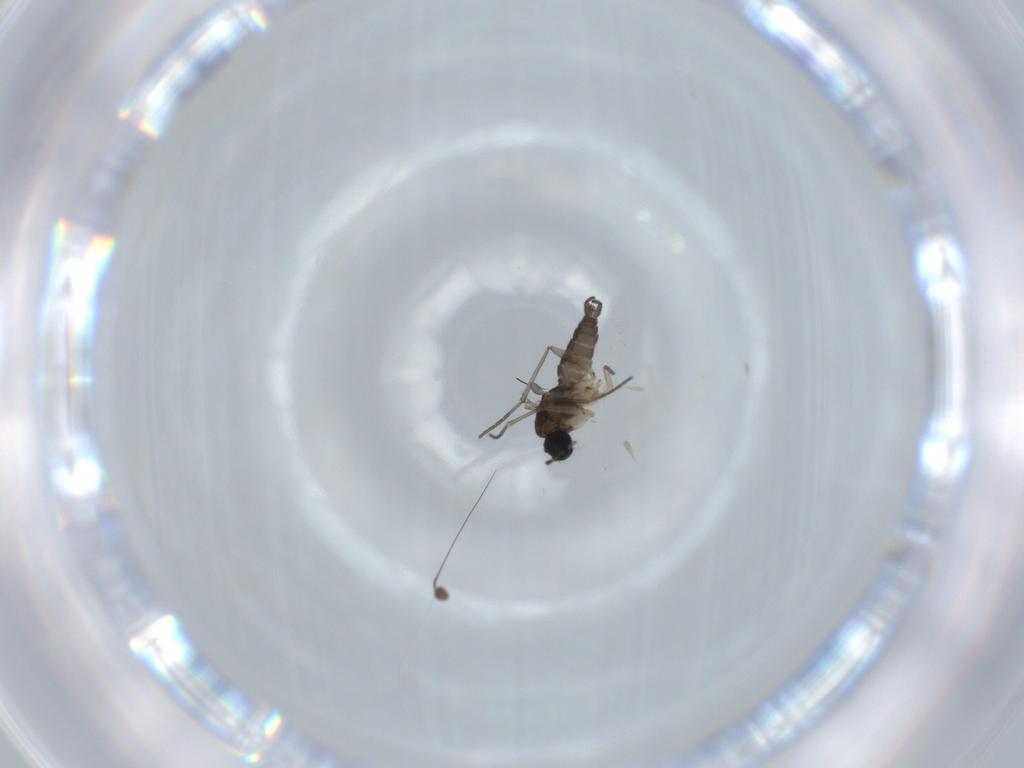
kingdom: Animalia
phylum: Arthropoda
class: Insecta
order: Diptera
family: Sciaridae
